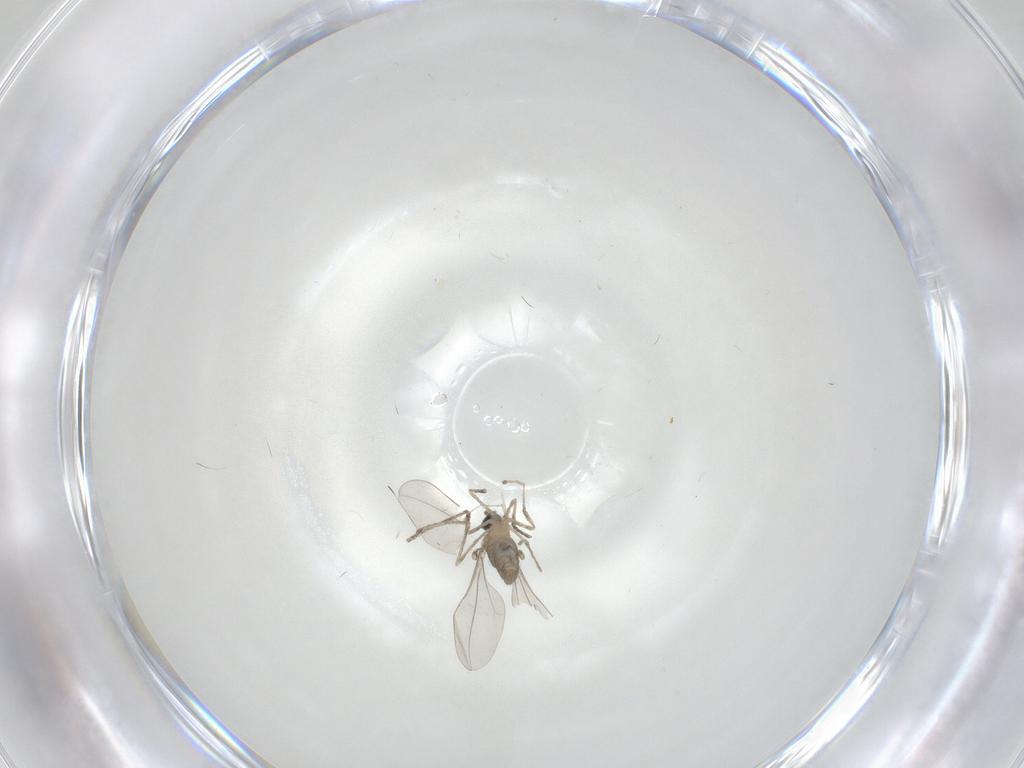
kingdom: Animalia
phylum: Arthropoda
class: Insecta
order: Diptera
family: Cecidomyiidae
